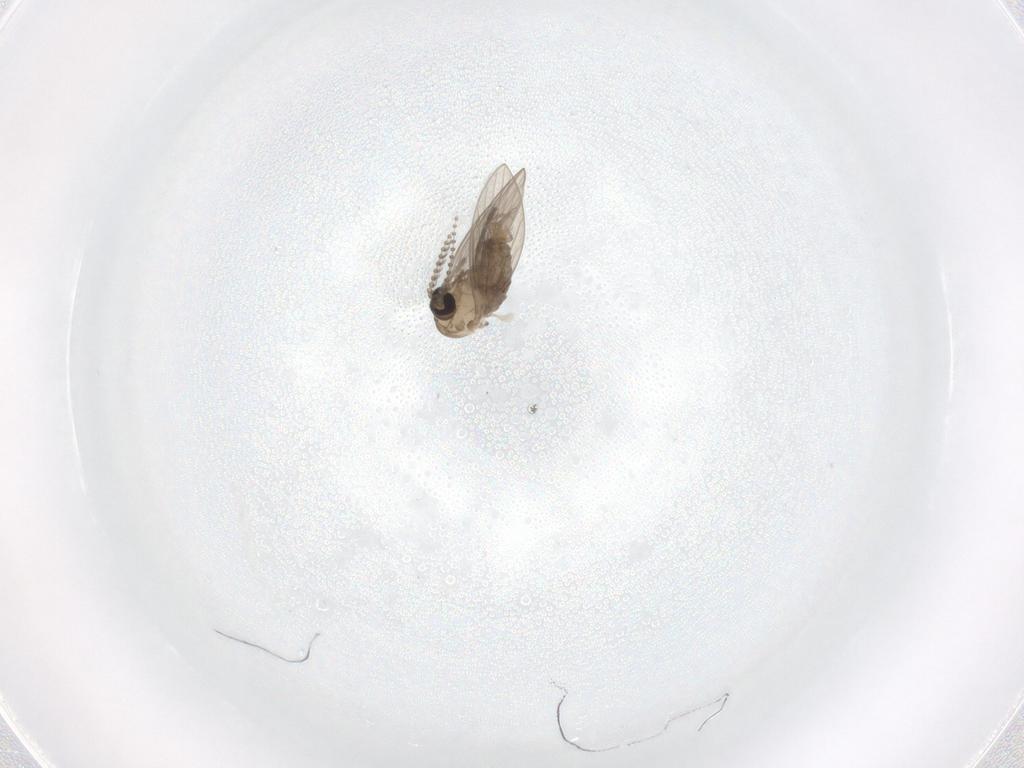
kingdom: Animalia
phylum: Arthropoda
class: Insecta
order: Diptera
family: Psychodidae
